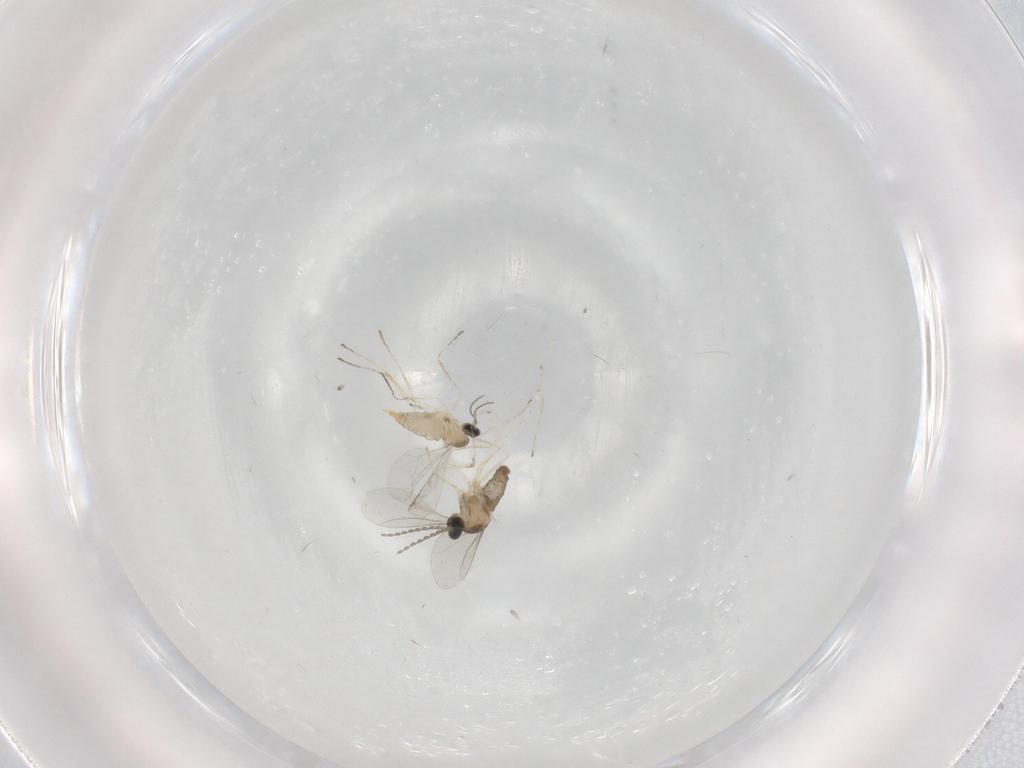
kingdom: Animalia
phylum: Arthropoda
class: Insecta
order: Diptera
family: Cecidomyiidae
